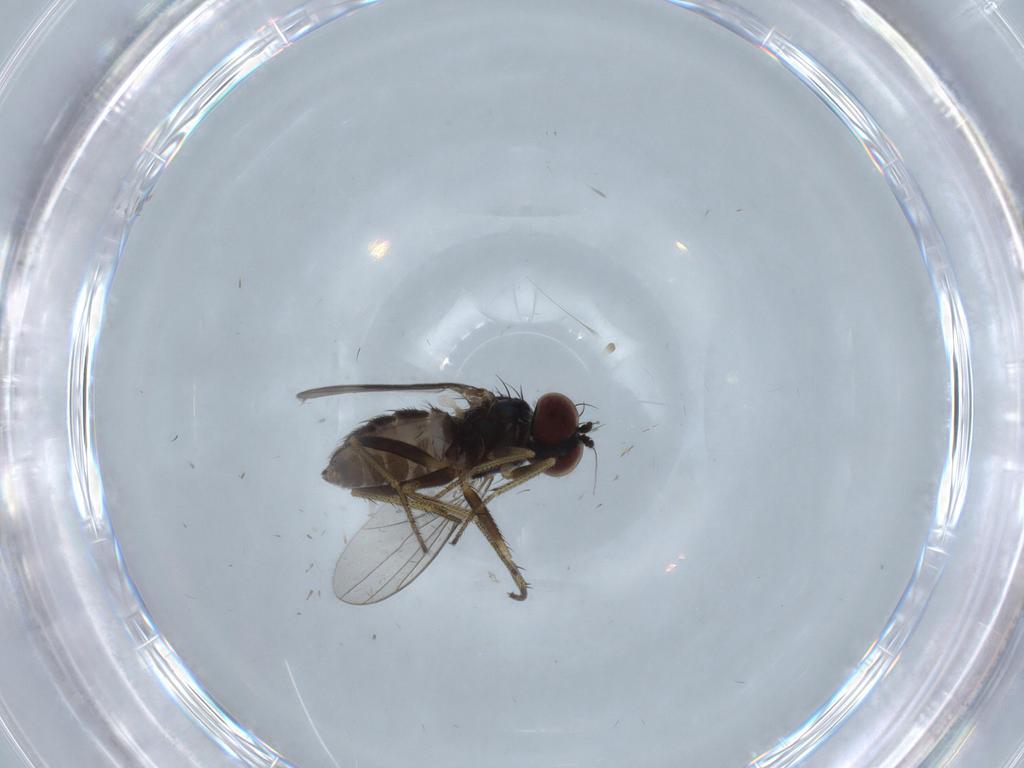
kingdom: Animalia
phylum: Arthropoda
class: Insecta
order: Diptera
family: Dolichopodidae
